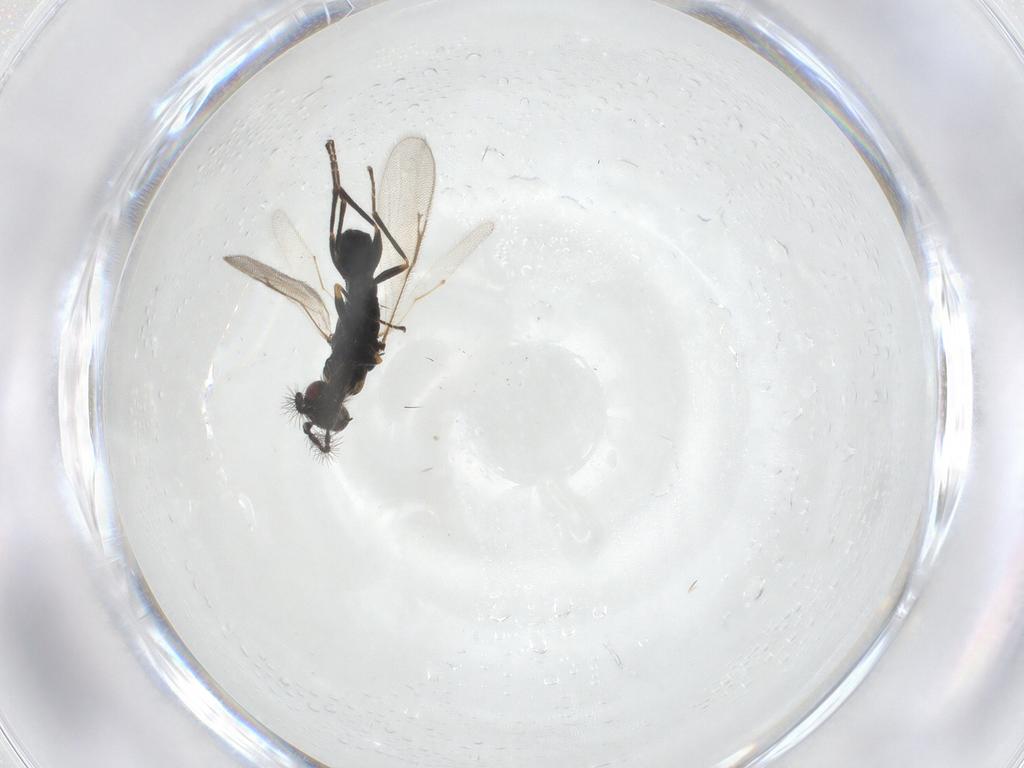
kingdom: Animalia
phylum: Arthropoda
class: Insecta
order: Hymenoptera
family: Eurytomidae
